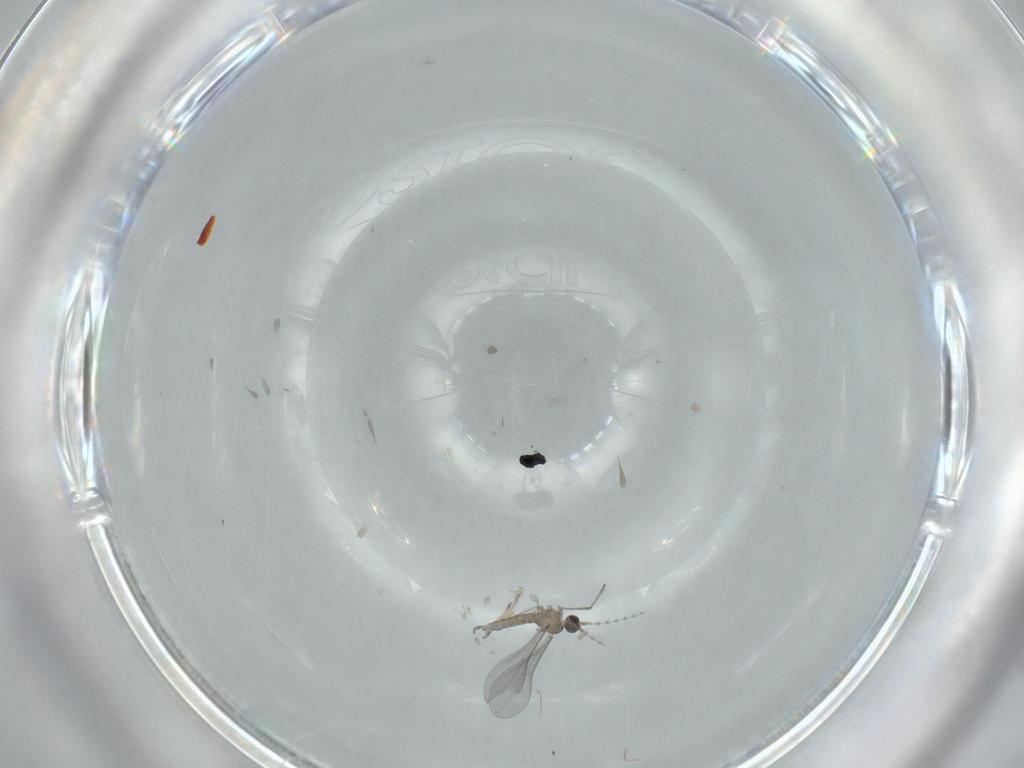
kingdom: Animalia
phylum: Arthropoda
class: Insecta
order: Diptera
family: Cecidomyiidae
